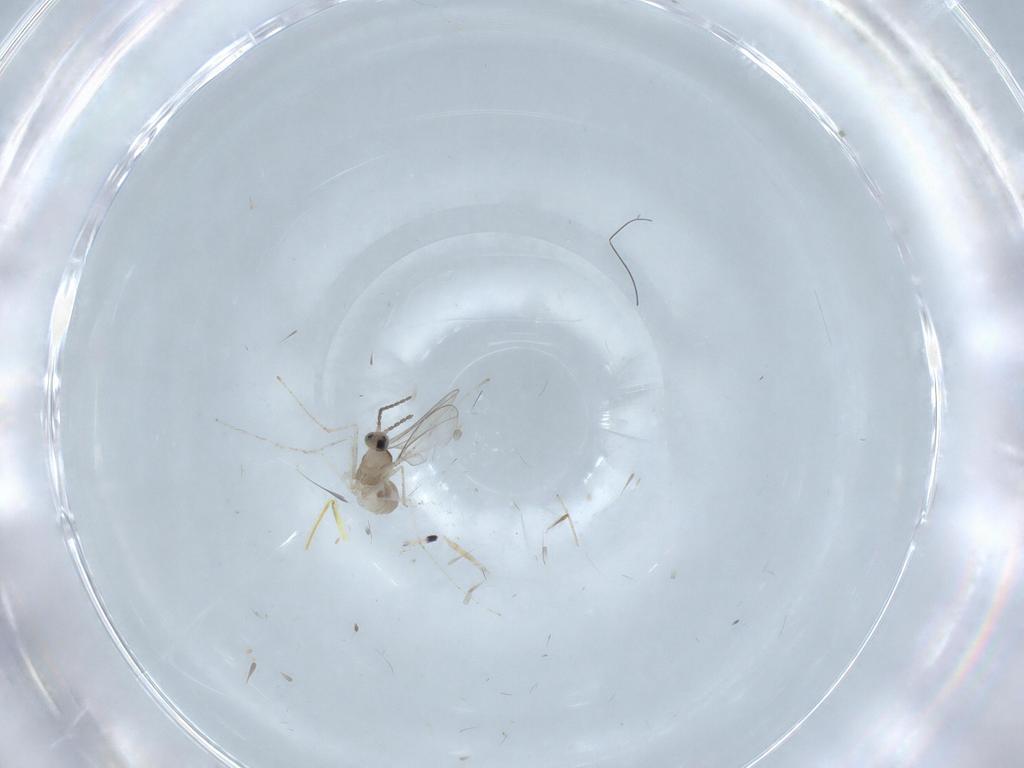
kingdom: Animalia
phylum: Arthropoda
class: Insecta
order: Diptera
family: Cecidomyiidae
